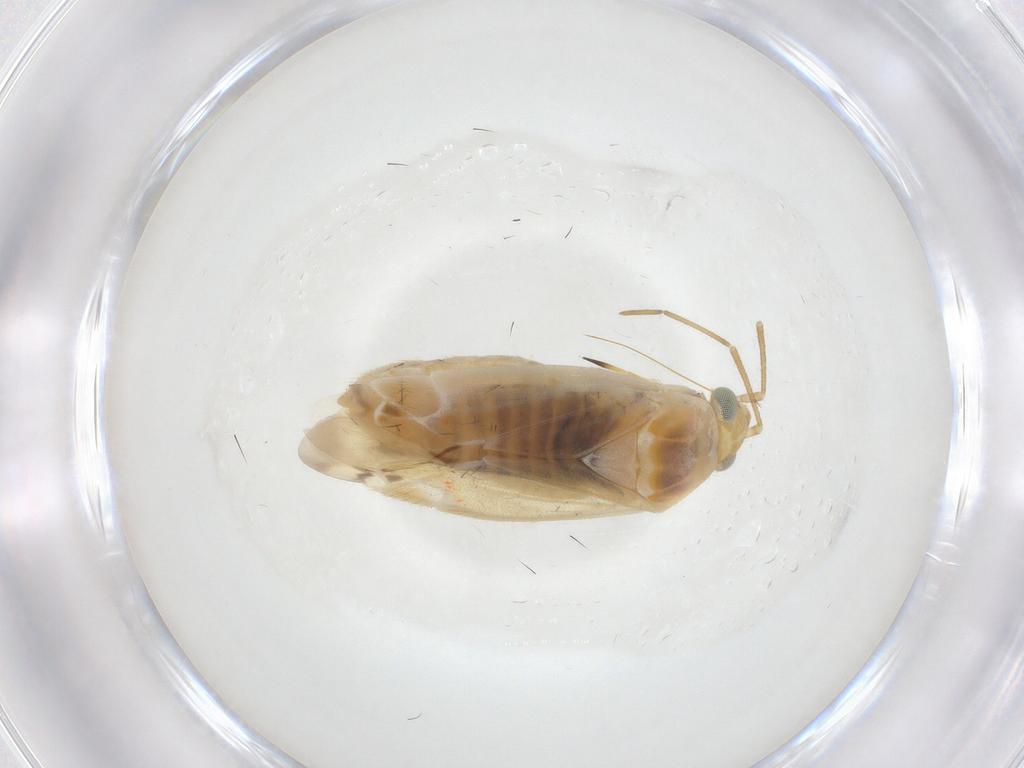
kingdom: Animalia
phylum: Arthropoda
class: Insecta
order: Hemiptera
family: Miridae
